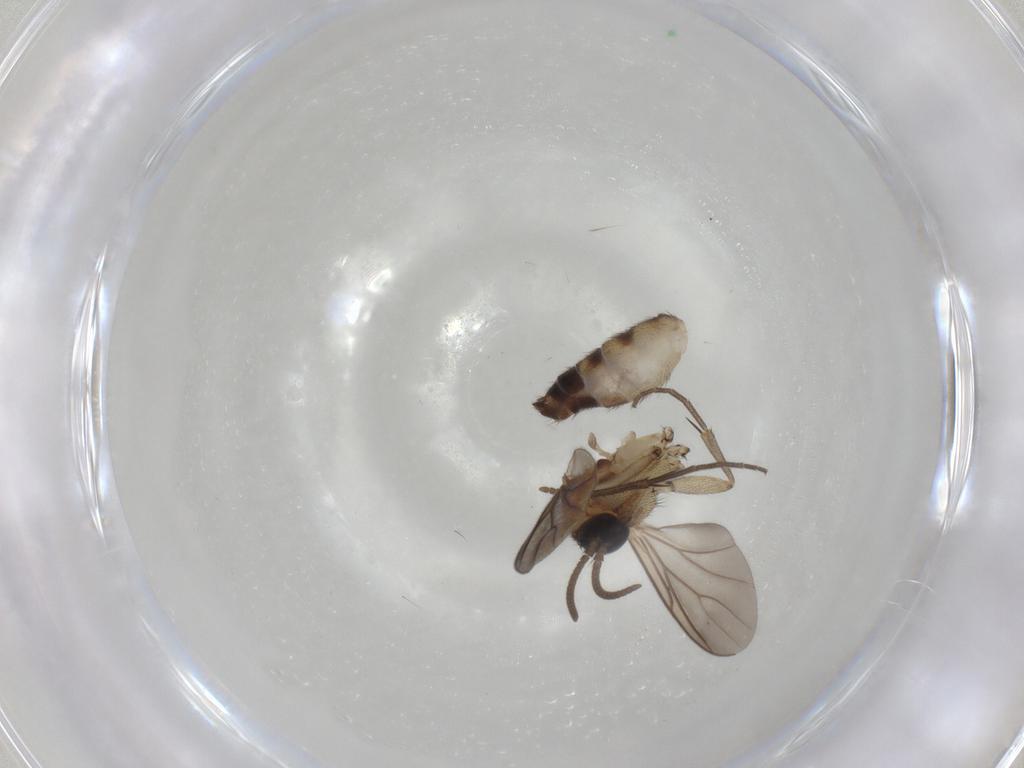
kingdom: Animalia
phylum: Arthropoda
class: Insecta
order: Diptera
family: Mycetophilidae
